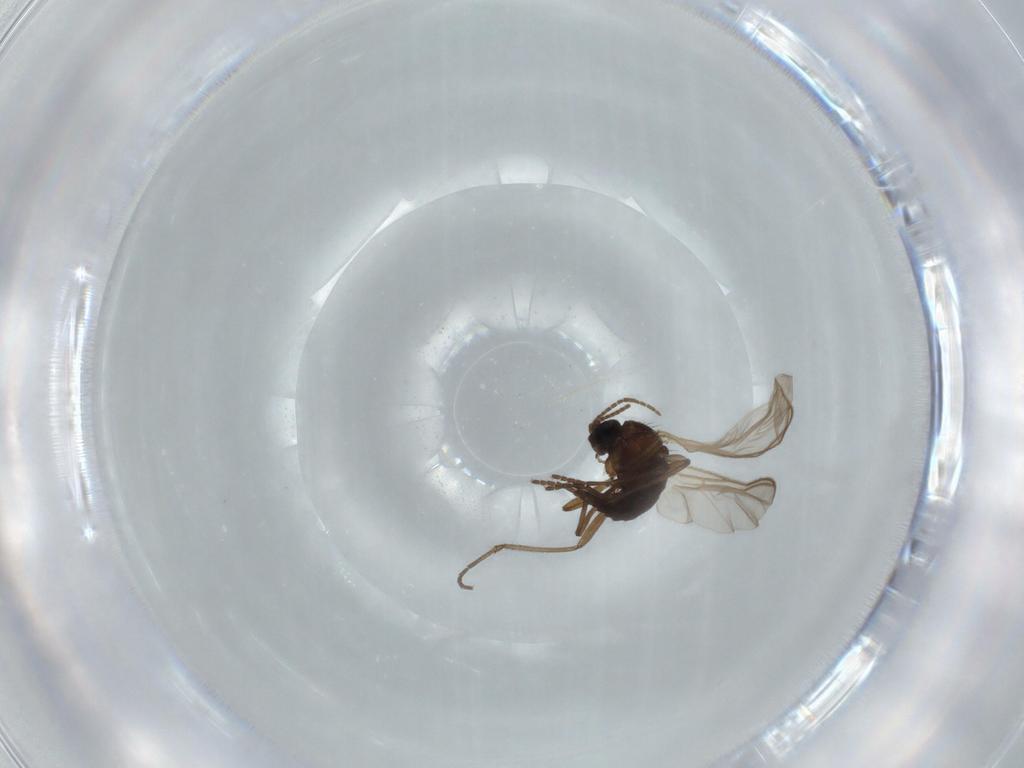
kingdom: Animalia
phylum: Arthropoda
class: Insecta
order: Diptera
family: Sciaridae
